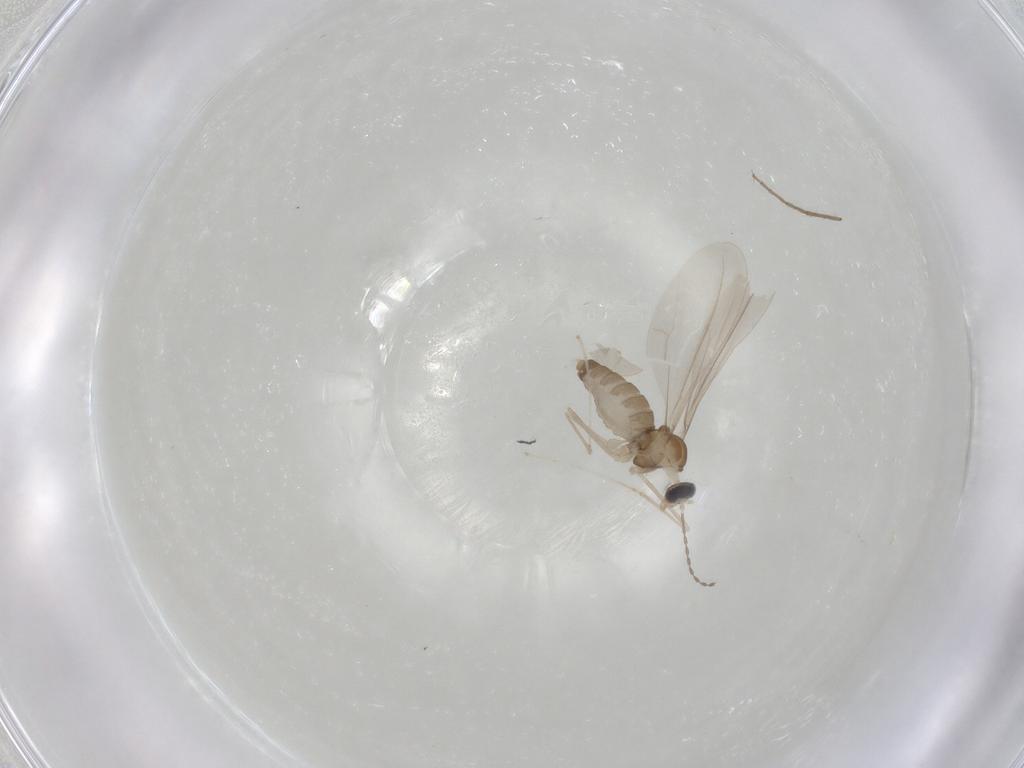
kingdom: Animalia
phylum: Arthropoda
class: Insecta
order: Diptera
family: Cecidomyiidae
